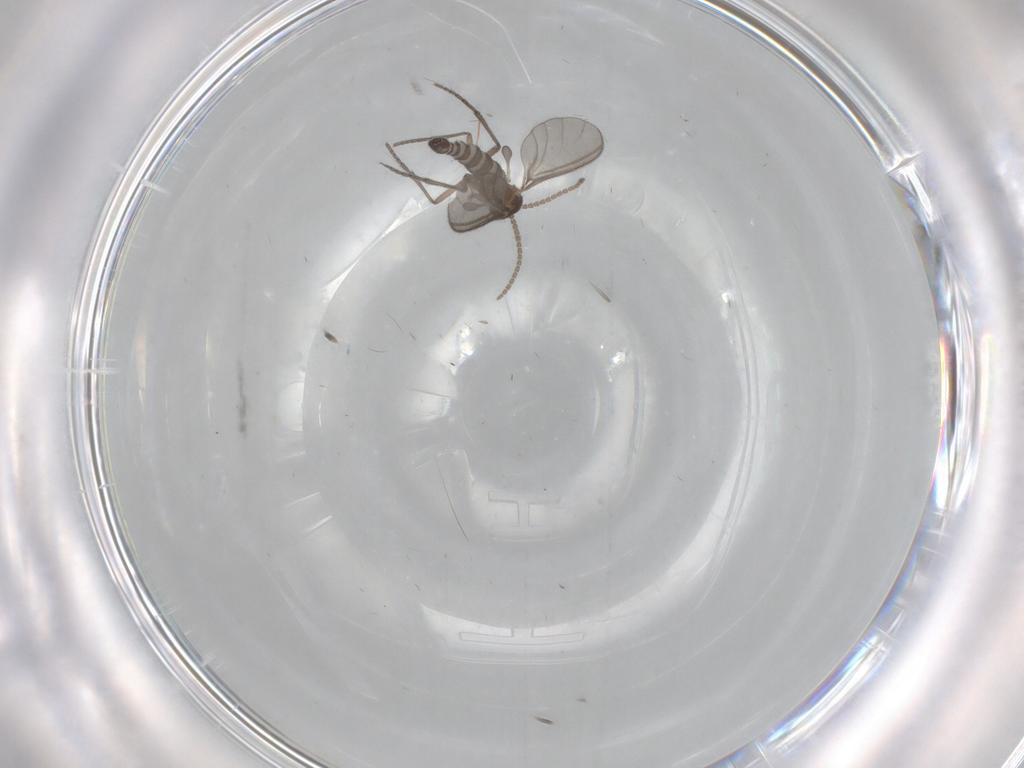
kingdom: Animalia
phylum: Arthropoda
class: Insecta
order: Diptera
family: Sciaridae
